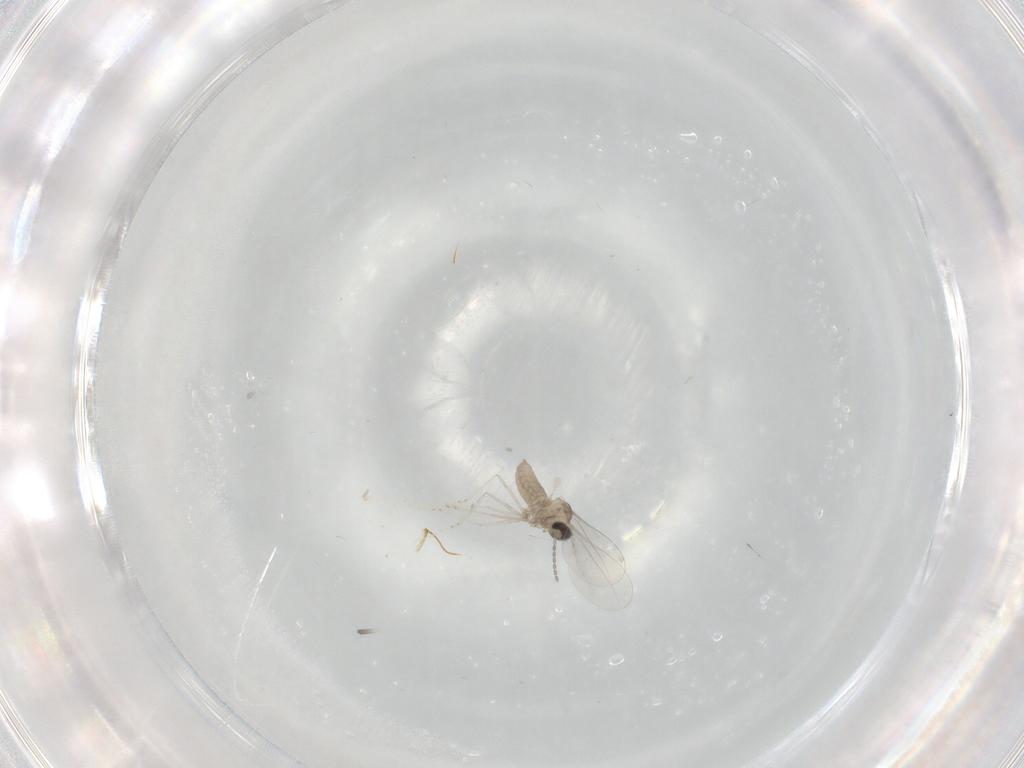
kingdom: Animalia
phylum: Arthropoda
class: Insecta
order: Diptera
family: Cecidomyiidae
